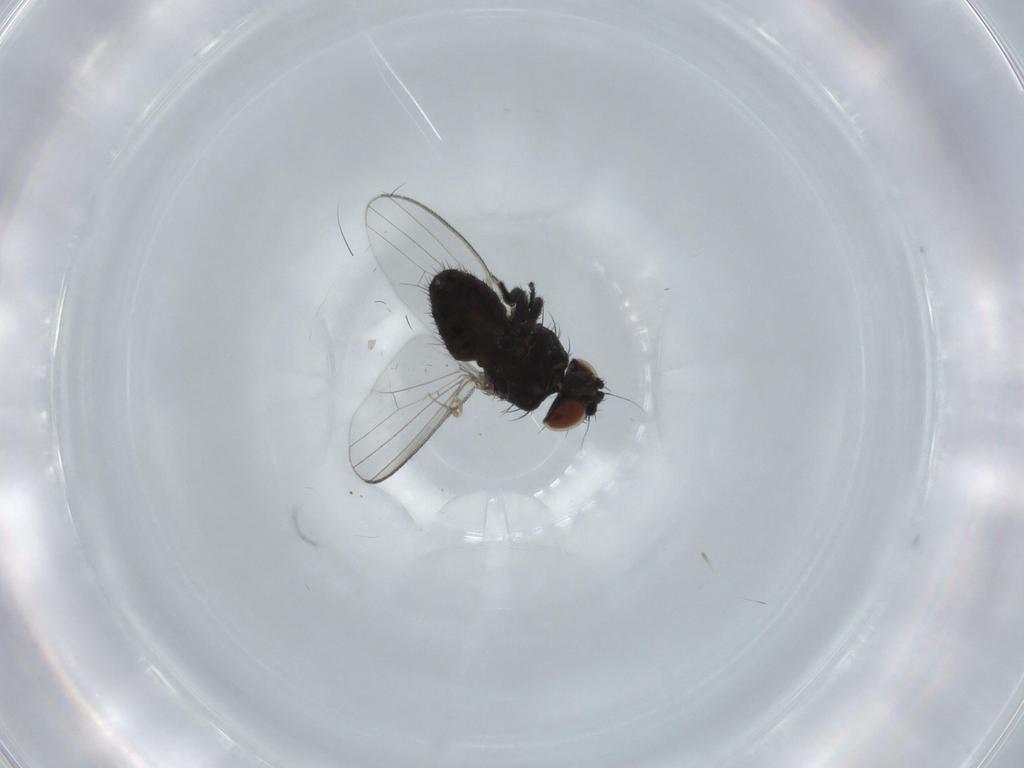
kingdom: Animalia
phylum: Arthropoda
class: Insecta
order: Diptera
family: Milichiidae
